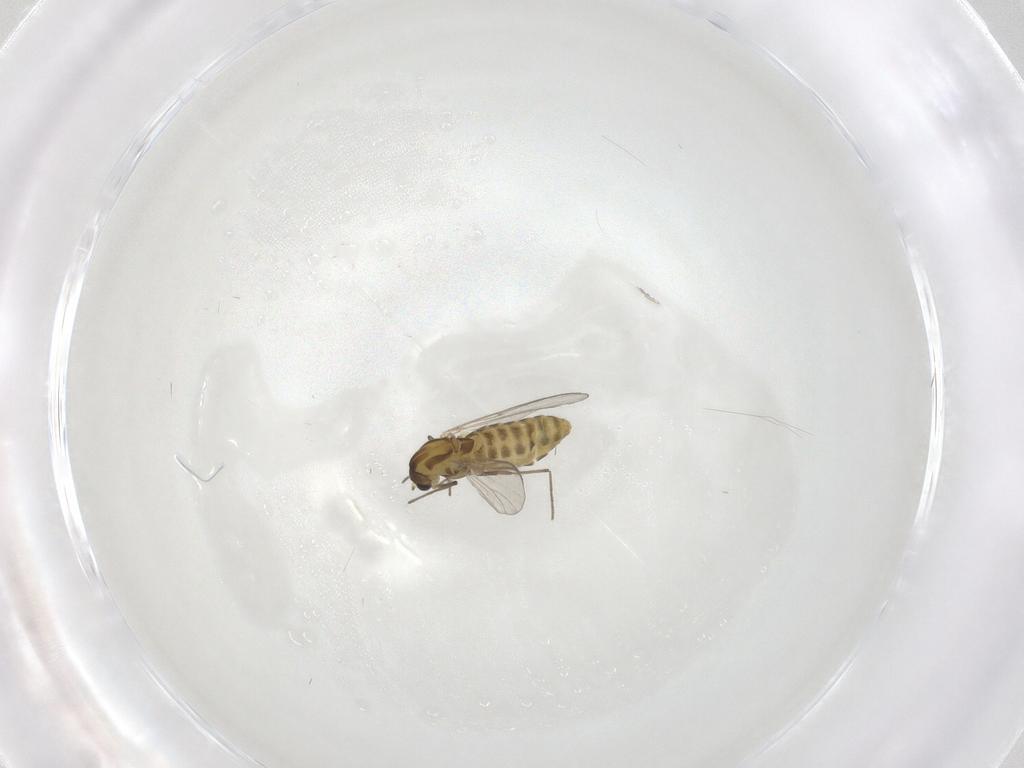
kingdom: Animalia
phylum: Arthropoda
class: Insecta
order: Diptera
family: Chironomidae
